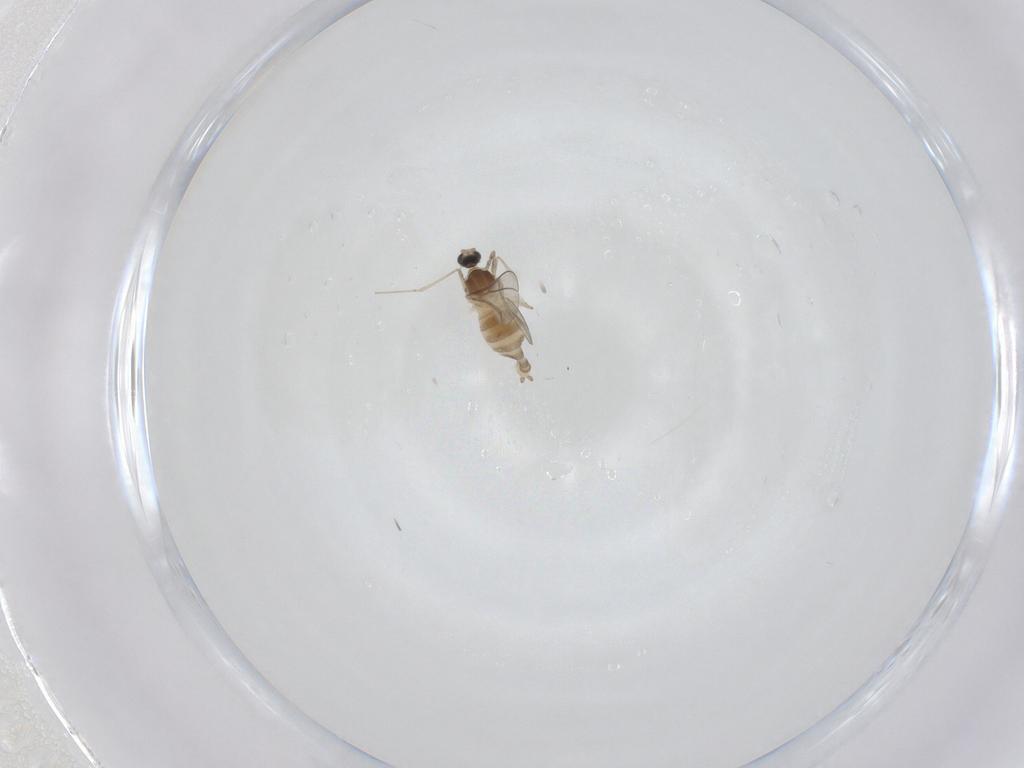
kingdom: Animalia
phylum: Arthropoda
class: Insecta
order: Diptera
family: Cecidomyiidae
